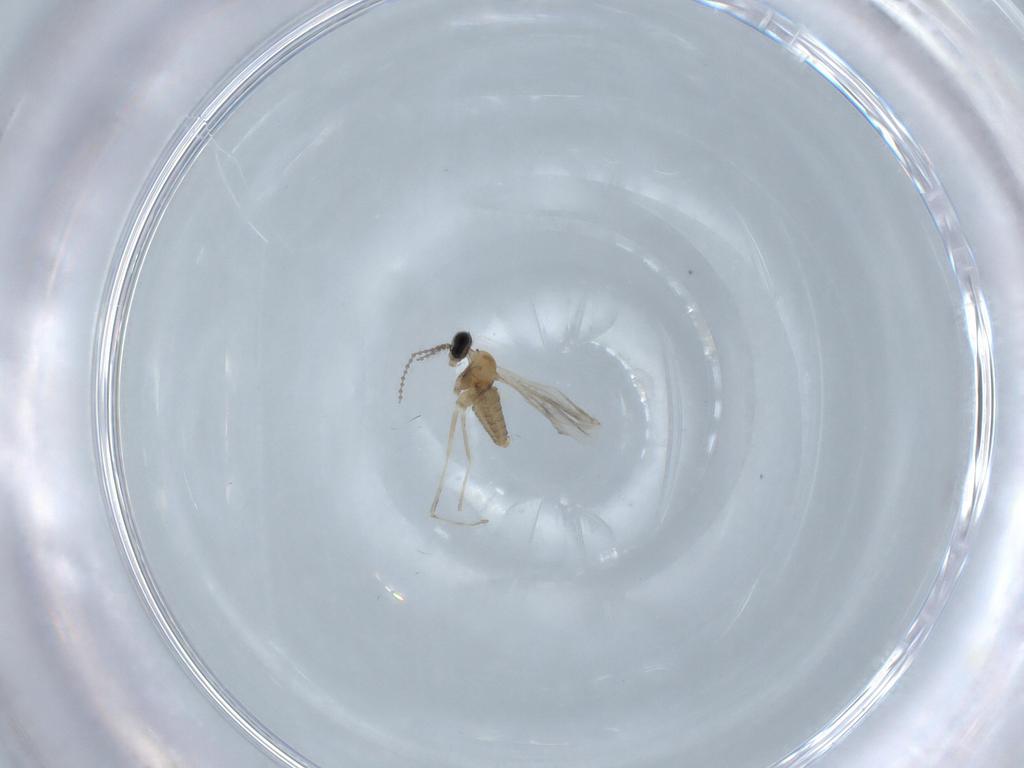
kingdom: Animalia
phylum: Arthropoda
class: Insecta
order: Diptera
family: Cecidomyiidae
